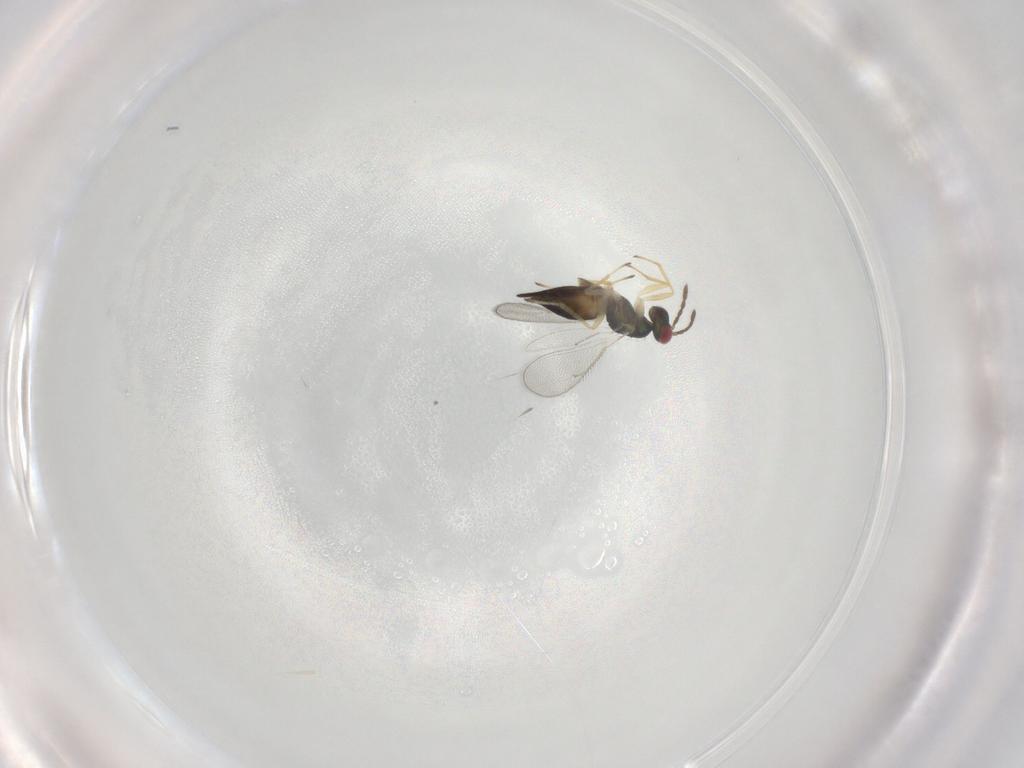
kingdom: Animalia
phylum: Arthropoda
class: Insecta
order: Hymenoptera
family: Eulophidae
